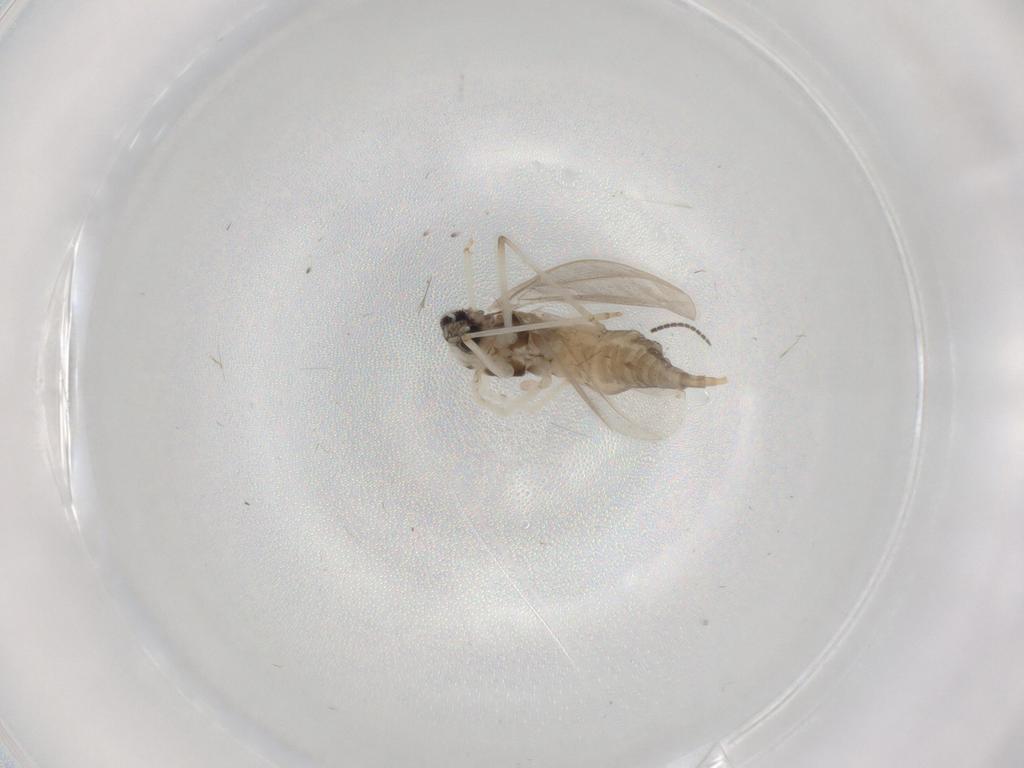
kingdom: Animalia
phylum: Arthropoda
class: Insecta
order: Diptera
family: Cecidomyiidae
